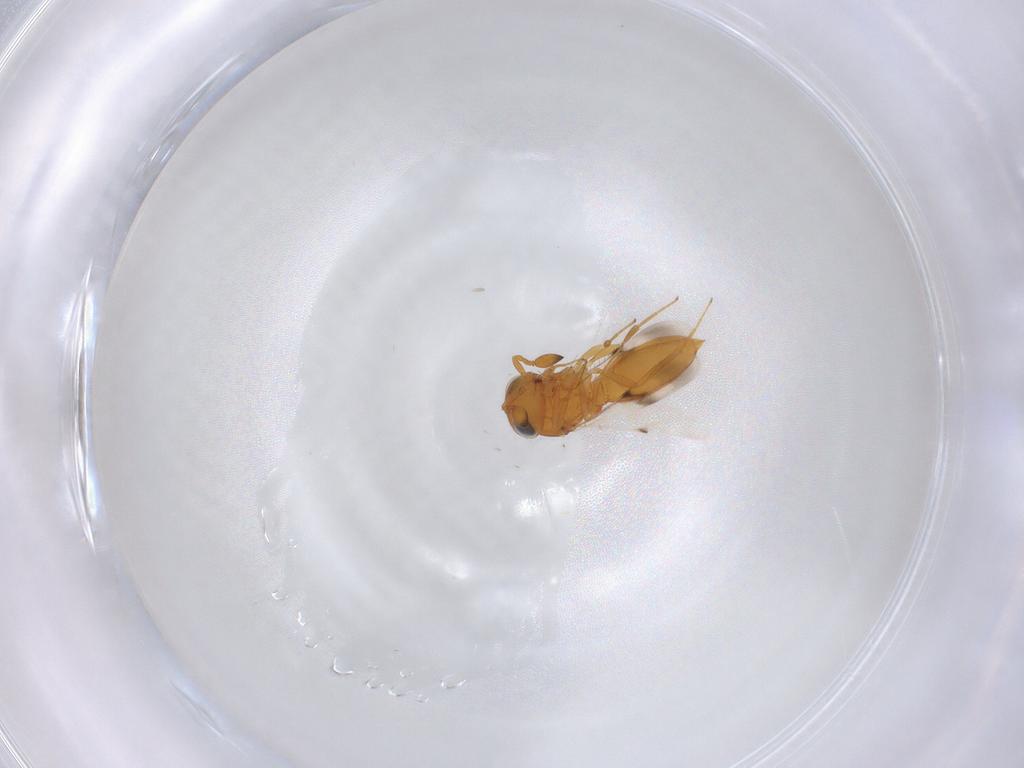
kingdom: Animalia
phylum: Arthropoda
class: Insecta
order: Hymenoptera
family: Scelionidae
